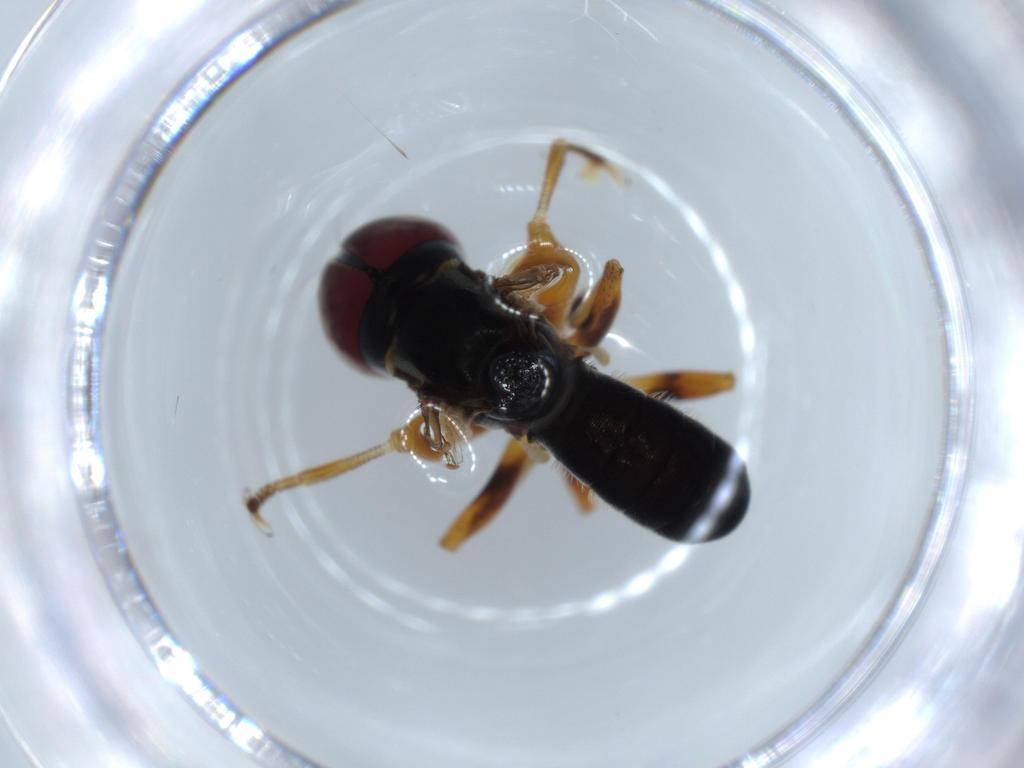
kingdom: Animalia
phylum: Arthropoda
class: Insecta
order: Diptera
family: Pipunculidae
